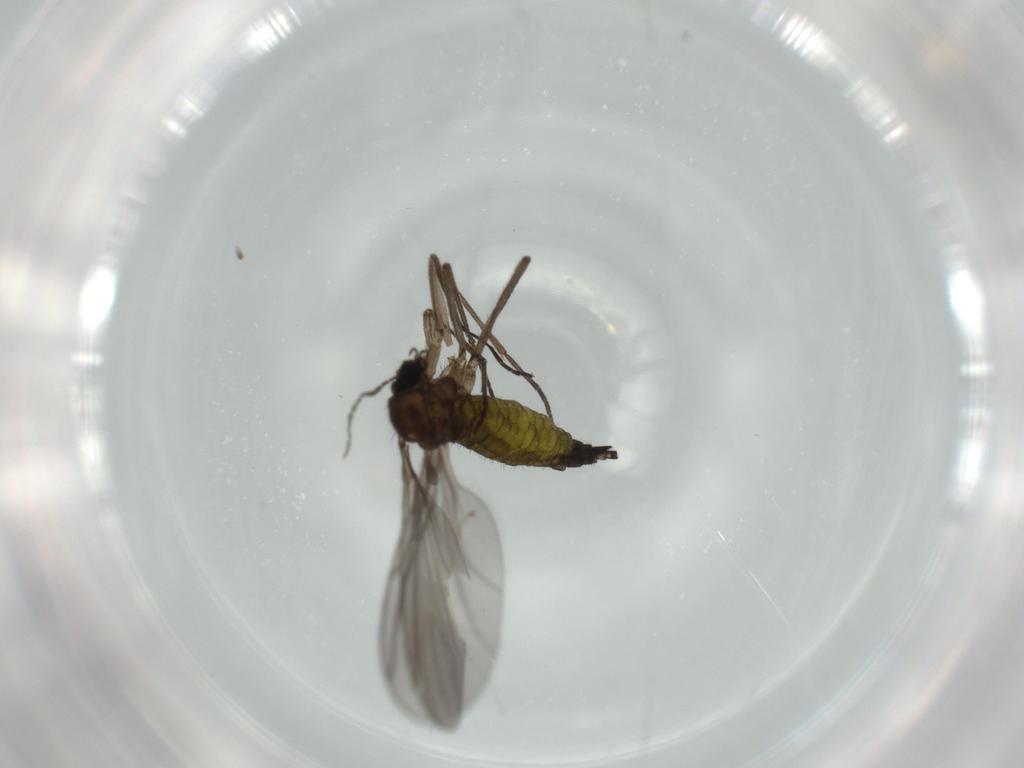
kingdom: Animalia
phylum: Arthropoda
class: Insecta
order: Diptera
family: Sciaridae
